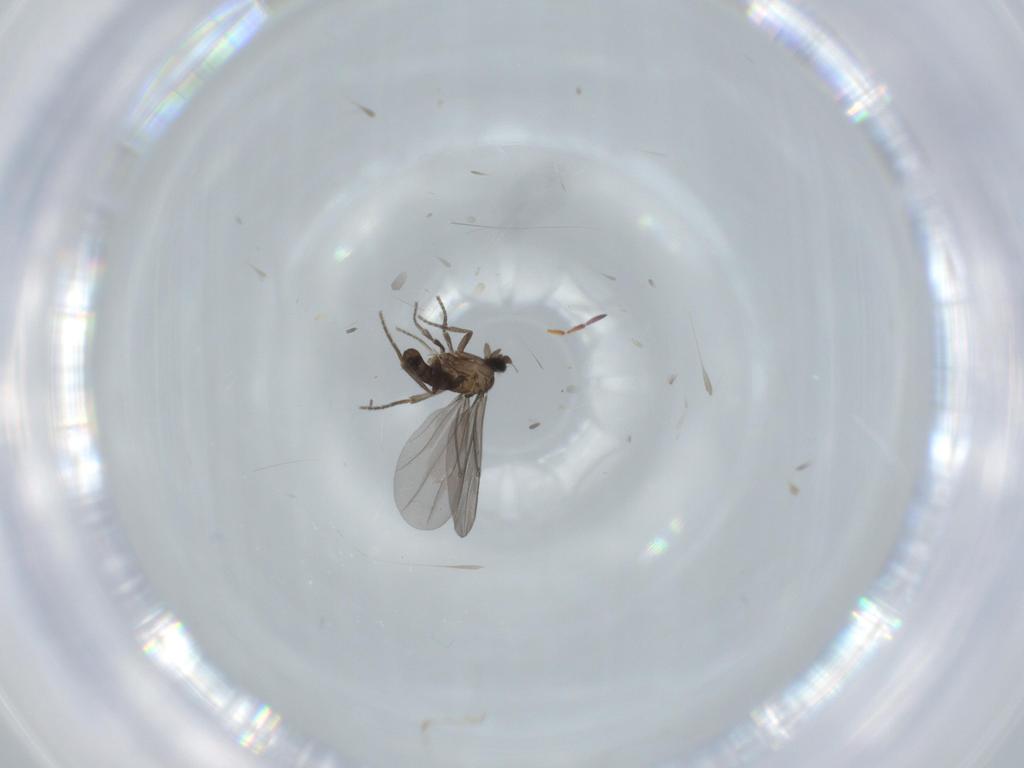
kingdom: Animalia
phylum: Arthropoda
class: Insecta
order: Diptera
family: Phoridae
